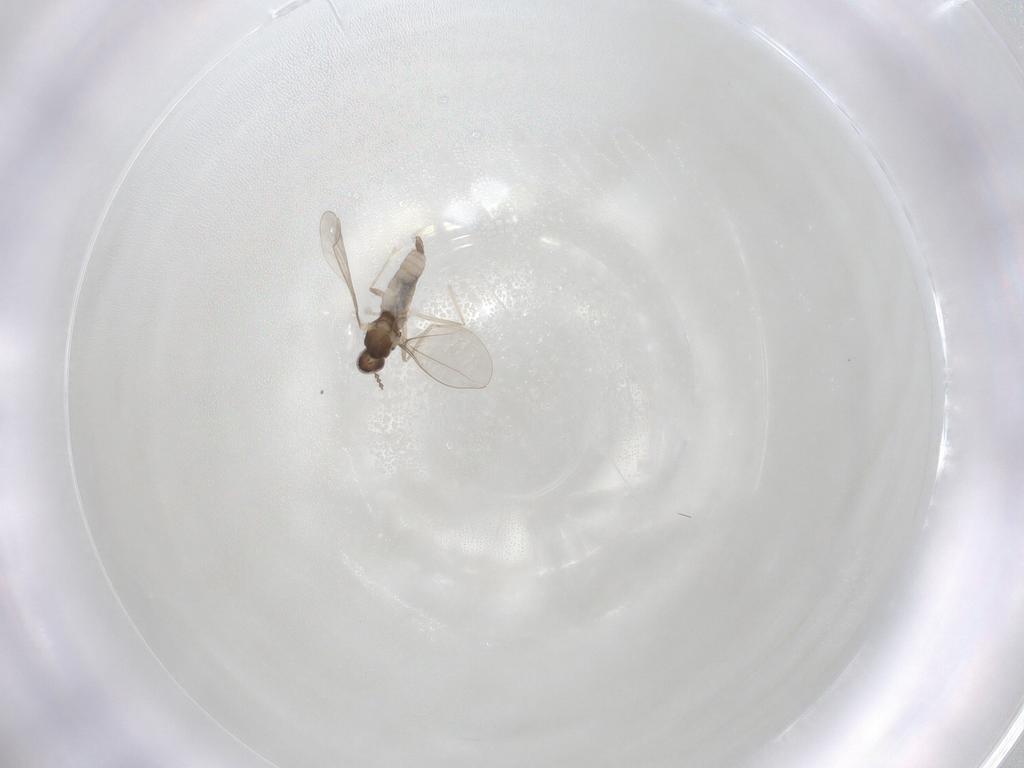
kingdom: Animalia
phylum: Arthropoda
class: Insecta
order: Diptera
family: Cecidomyiidae
